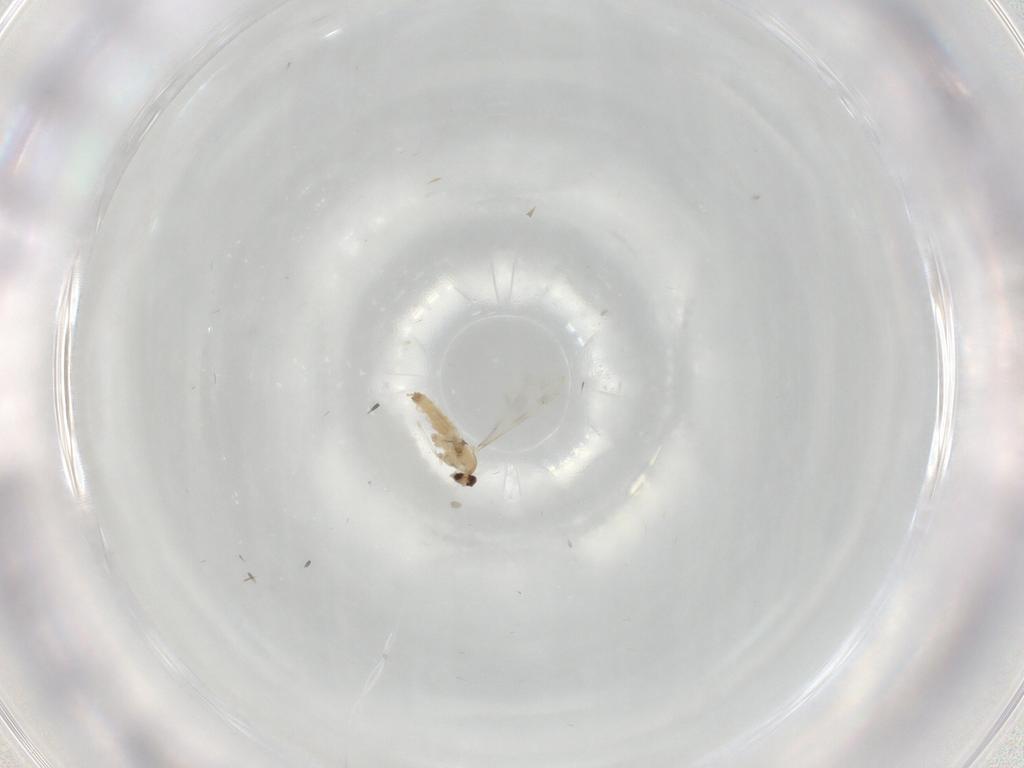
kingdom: Animalia
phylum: Arthropoda
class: Insecta
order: Diptera
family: Cecidomyiidae
